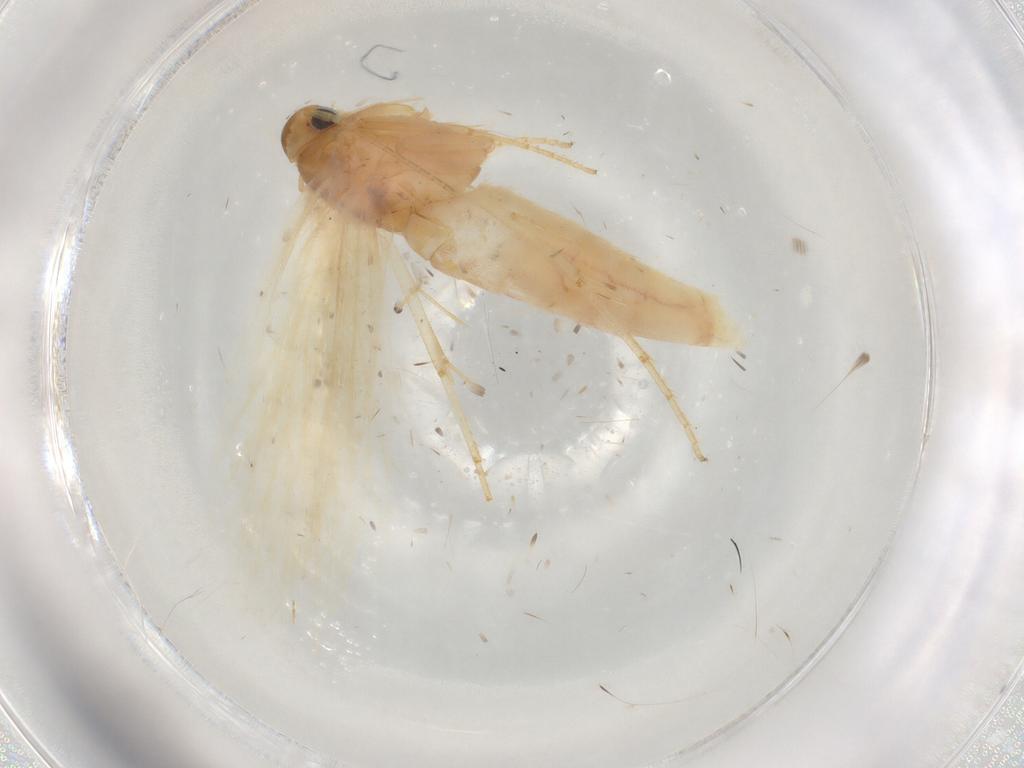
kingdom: Animalia
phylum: Arthropoda
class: Insecta
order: Lepidoptera
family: Gelechiidae
